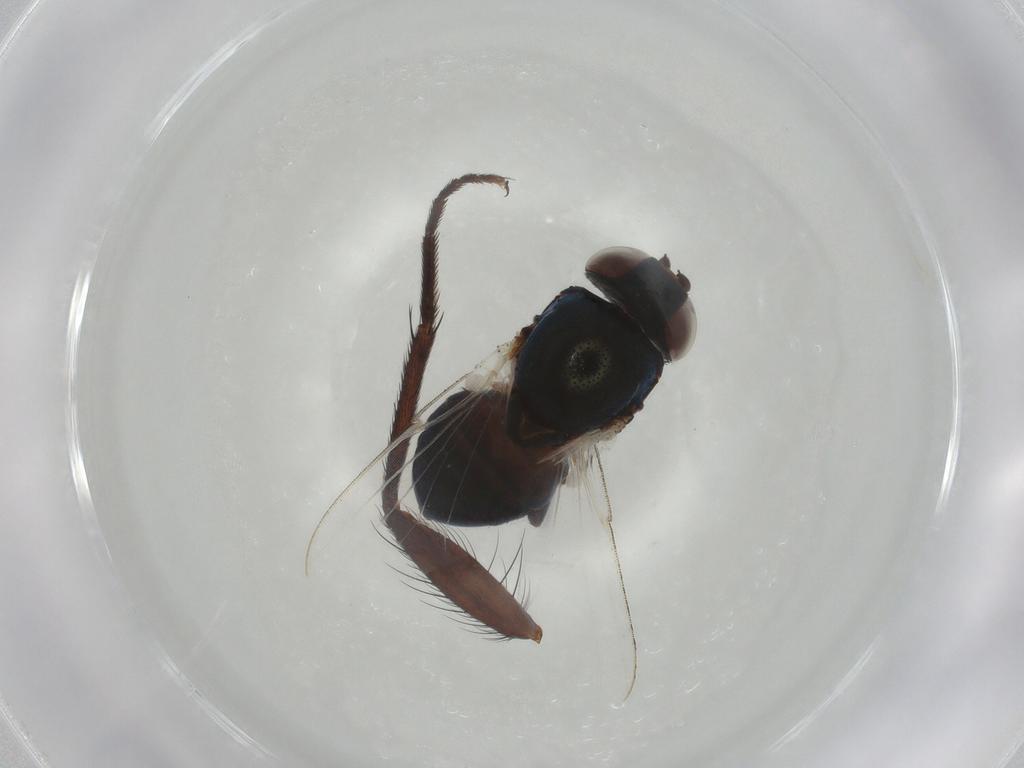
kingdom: Animalia
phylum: Arthropoda
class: Insecta
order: Diptera
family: Sarcophagidae
